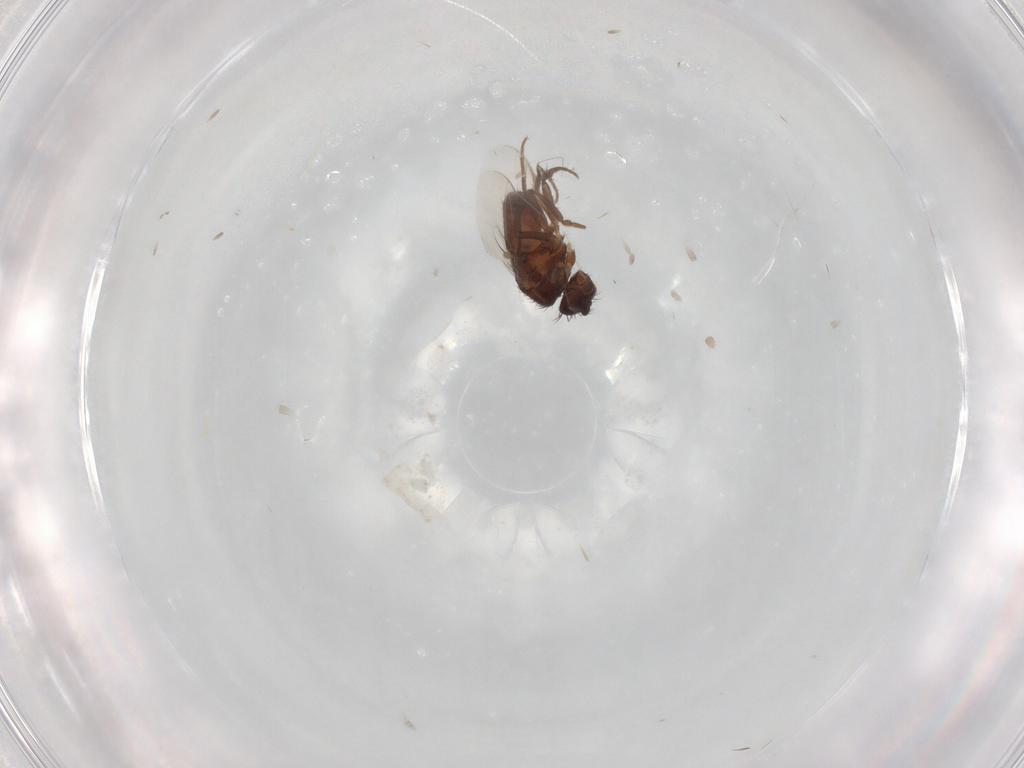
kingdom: Animalia
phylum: Arthropoda
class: Insecta
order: Diptera
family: Sphaeroceridae
